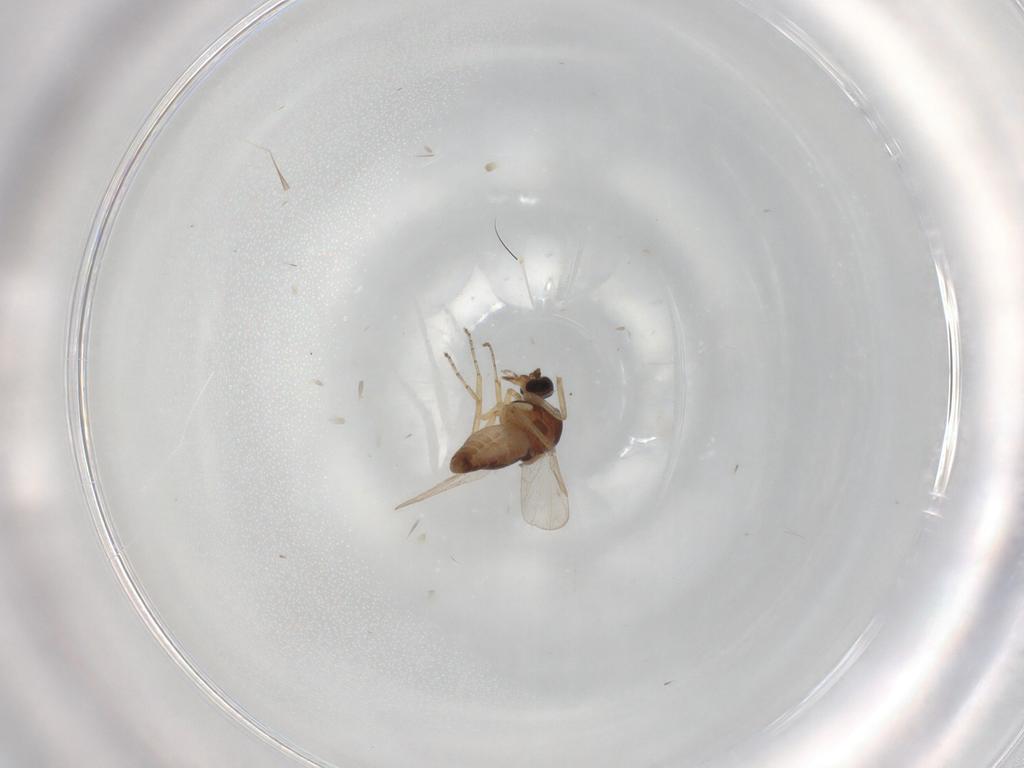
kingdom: Animalia
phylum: Arthropoda
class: Insecta
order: Diptera
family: Ceratopogonidae
